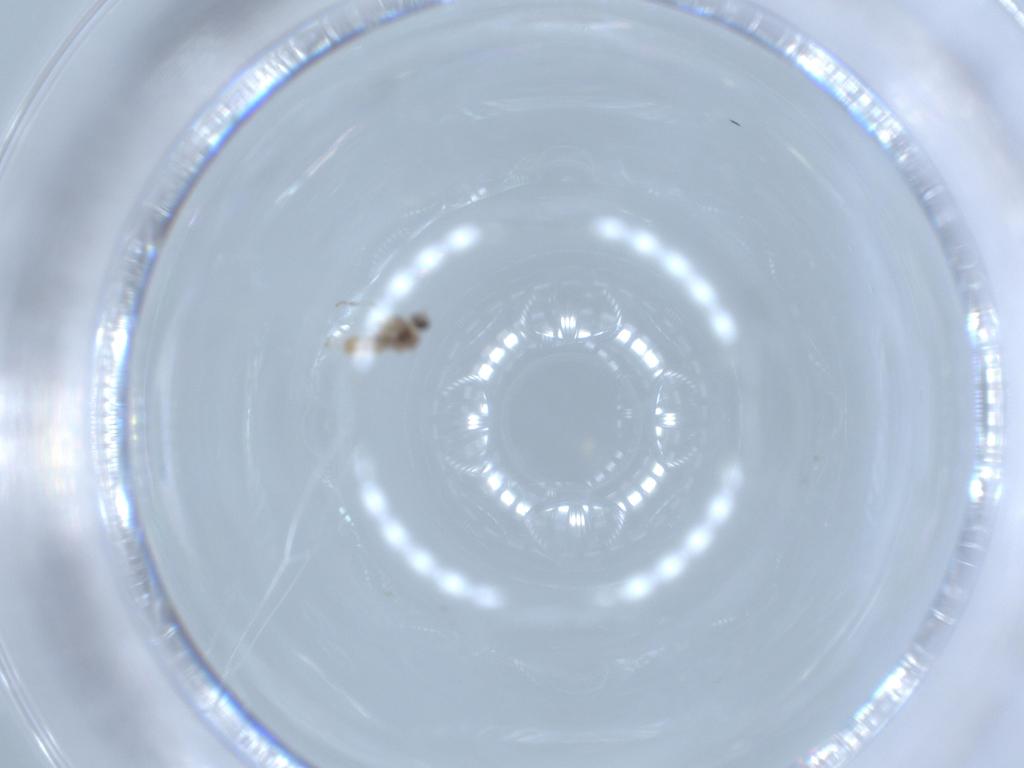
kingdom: Animalia
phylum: Arthropoda
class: Insecta
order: Diptera
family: Cecidomyiidae
